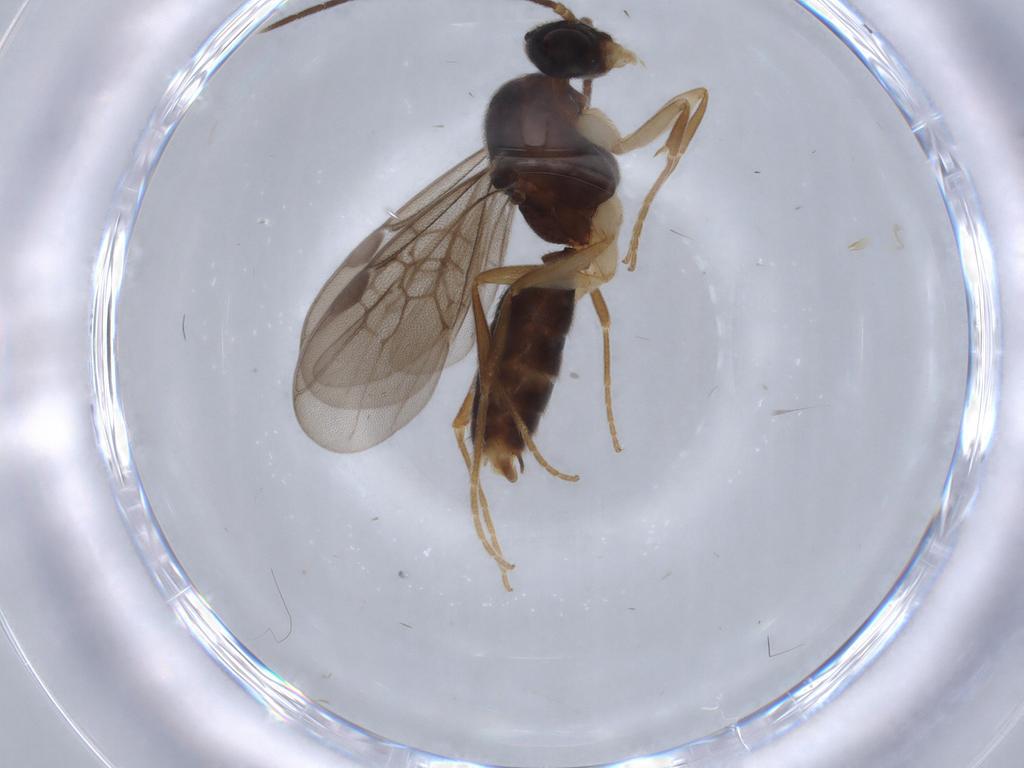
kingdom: Animalia
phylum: Arthropoda
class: Insecta
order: Hymenoptera
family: Formicidae
